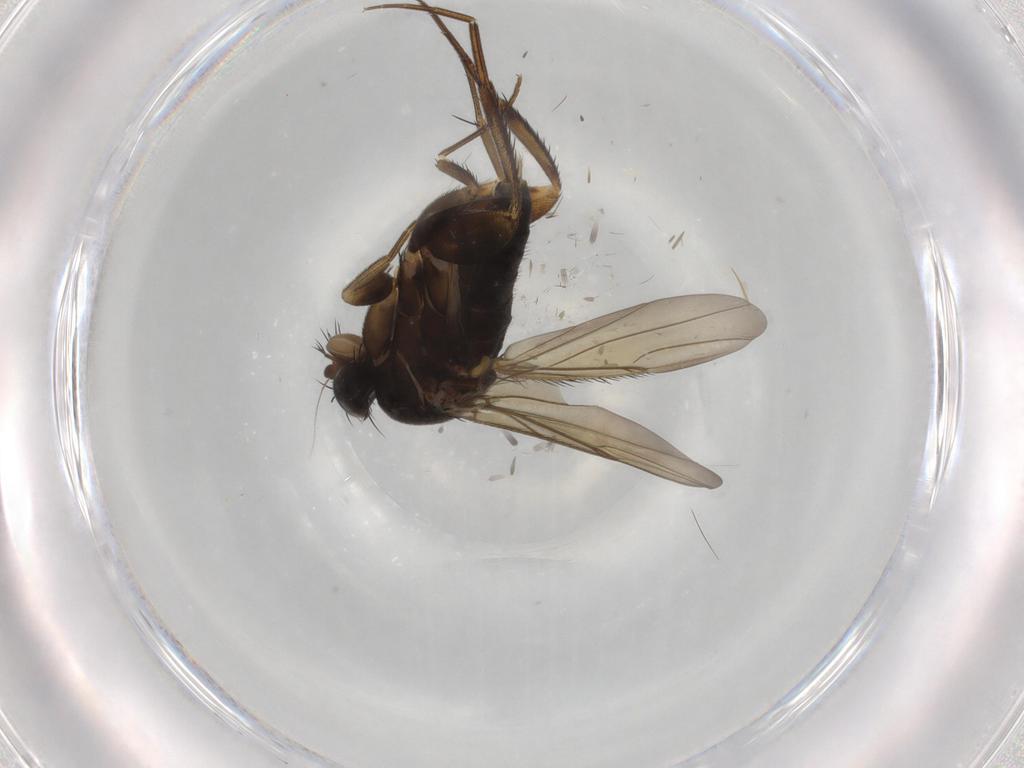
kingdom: Animalia
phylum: Arthropoda
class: Insecta
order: Diptera
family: Phoridae
